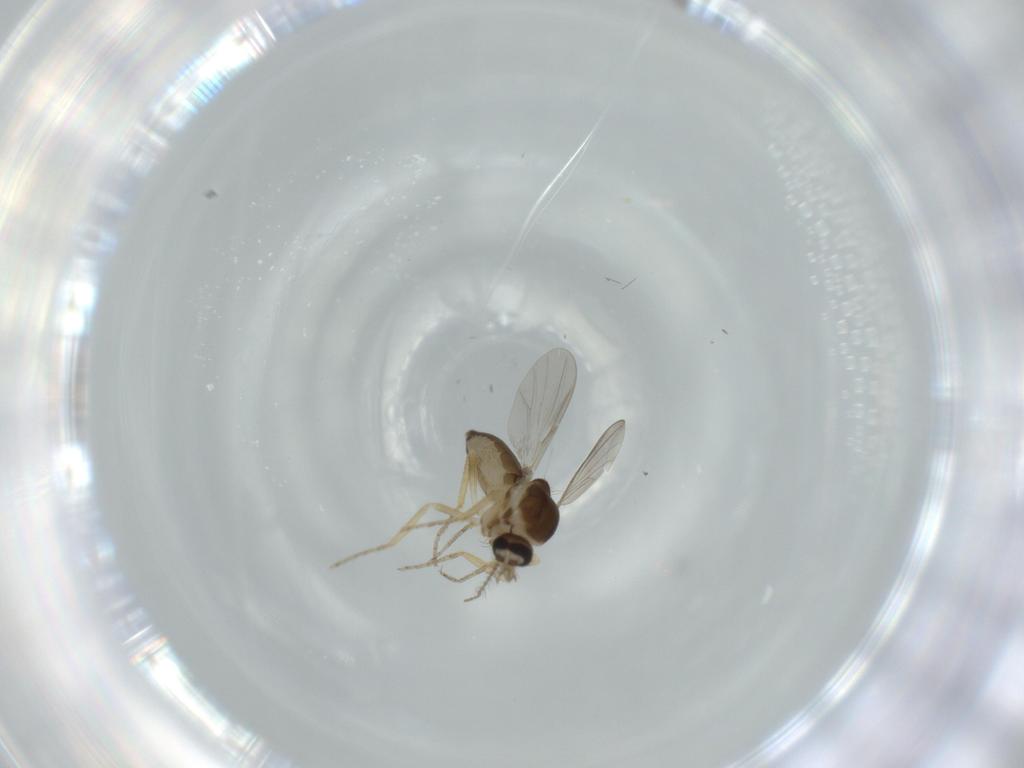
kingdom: Animalia
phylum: Arthropoda
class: Insecta
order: Diptera
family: Ceratopogonidae
